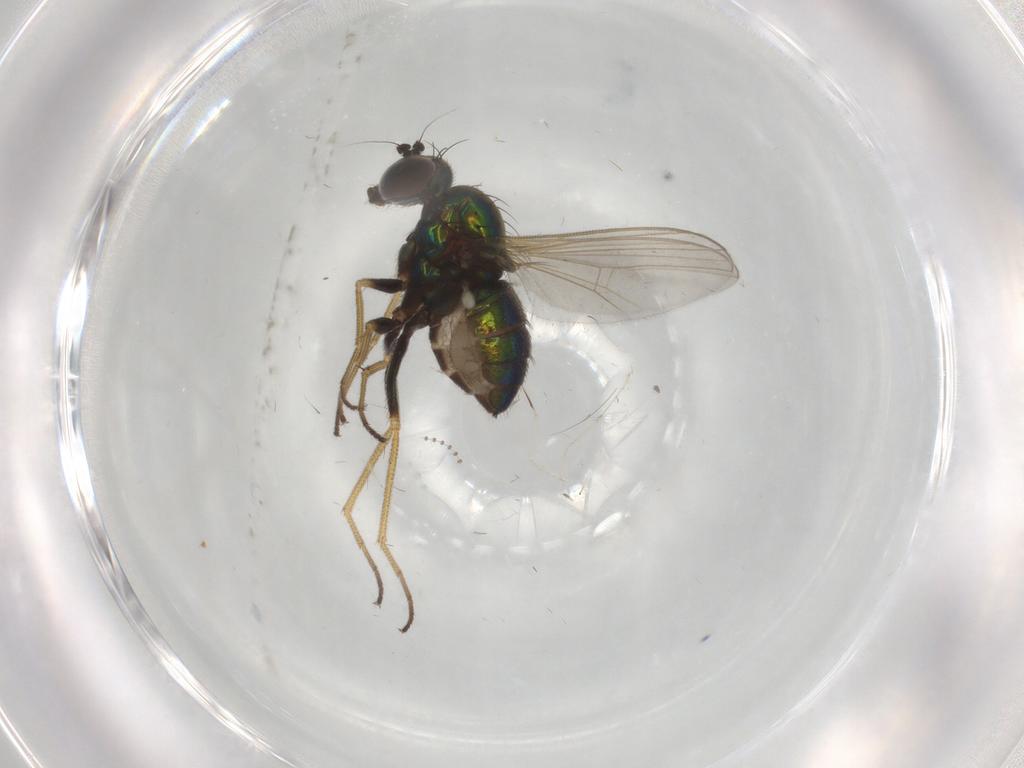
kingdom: Animalia
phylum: Arthropoda
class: Insecta
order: Diptera
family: Dolichopodidae
